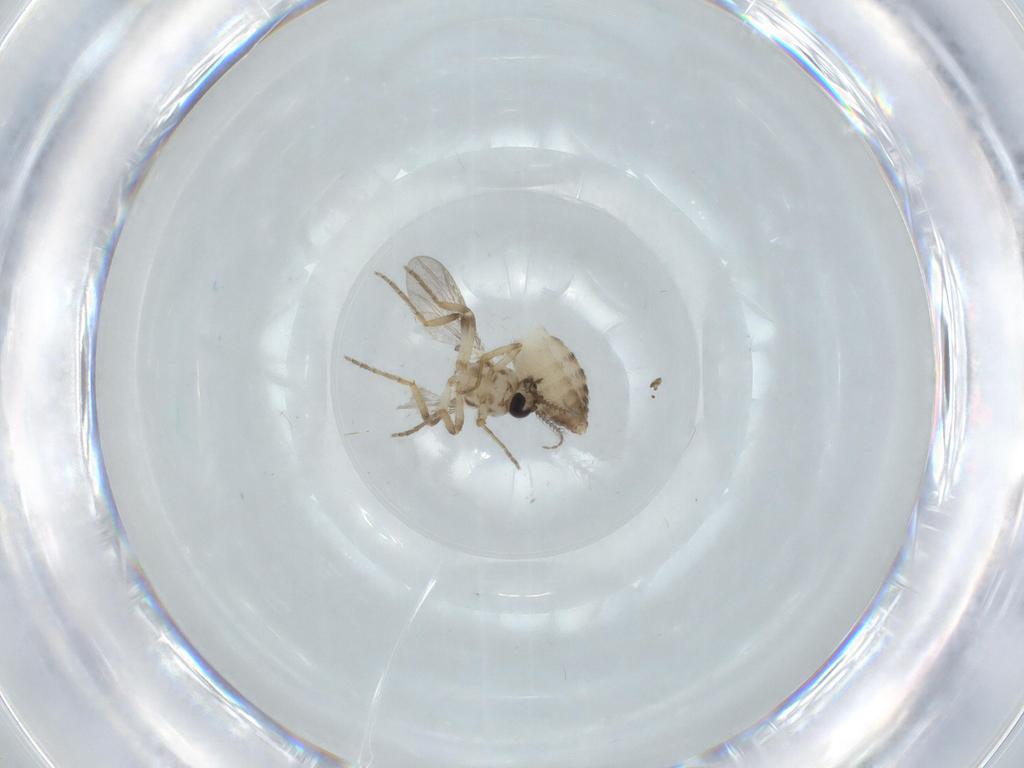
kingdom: Animalia
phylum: Arthropoda
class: Insecta
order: Diptera
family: Ceratopogonidae
